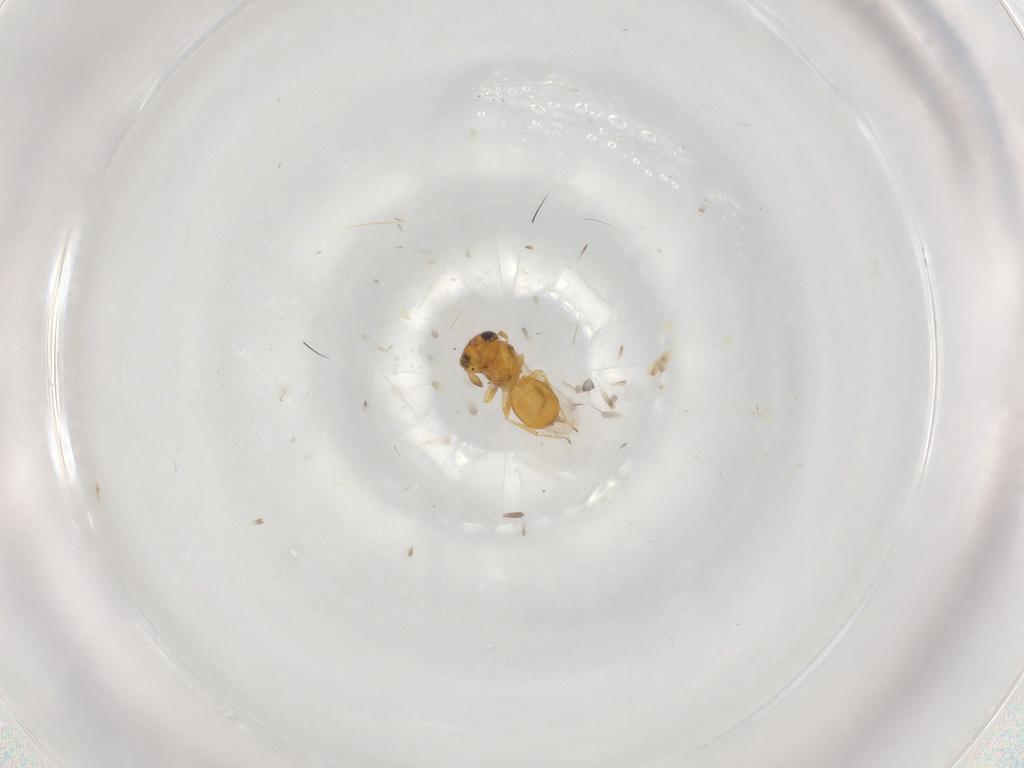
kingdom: Animalia
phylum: Arthropoda
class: Insecta
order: Hymenoptera
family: Scelionidae
